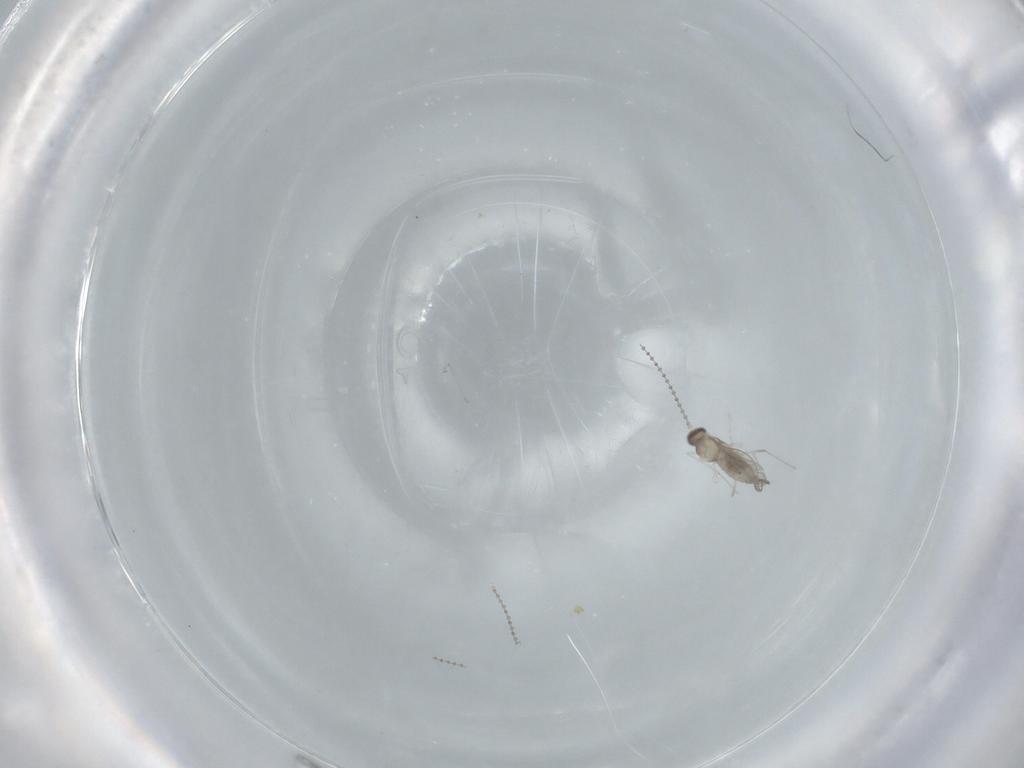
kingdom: Animalia
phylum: Arthropoda
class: Insecta
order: Diptera
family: Cecidomyiidae
